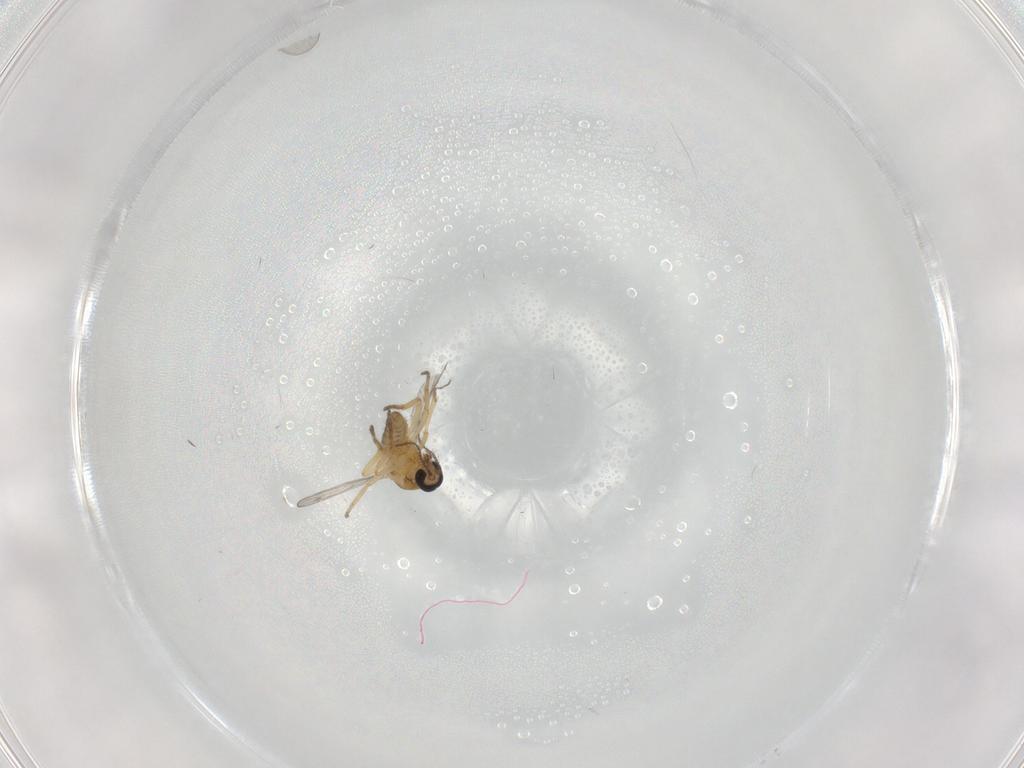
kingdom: Animalia
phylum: Arthropoda
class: Insecta
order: Diptera
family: Ceratopogonidae
